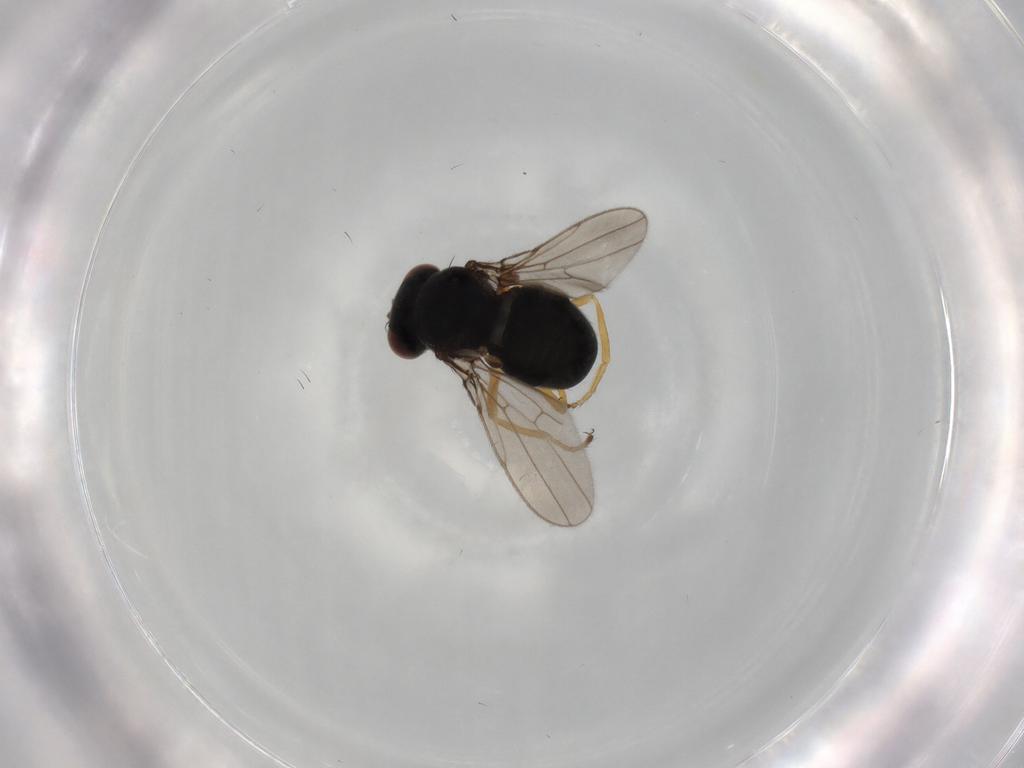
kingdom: Animalia
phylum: Arthropoda
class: Insecta
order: Diptera
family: Ephydridae
